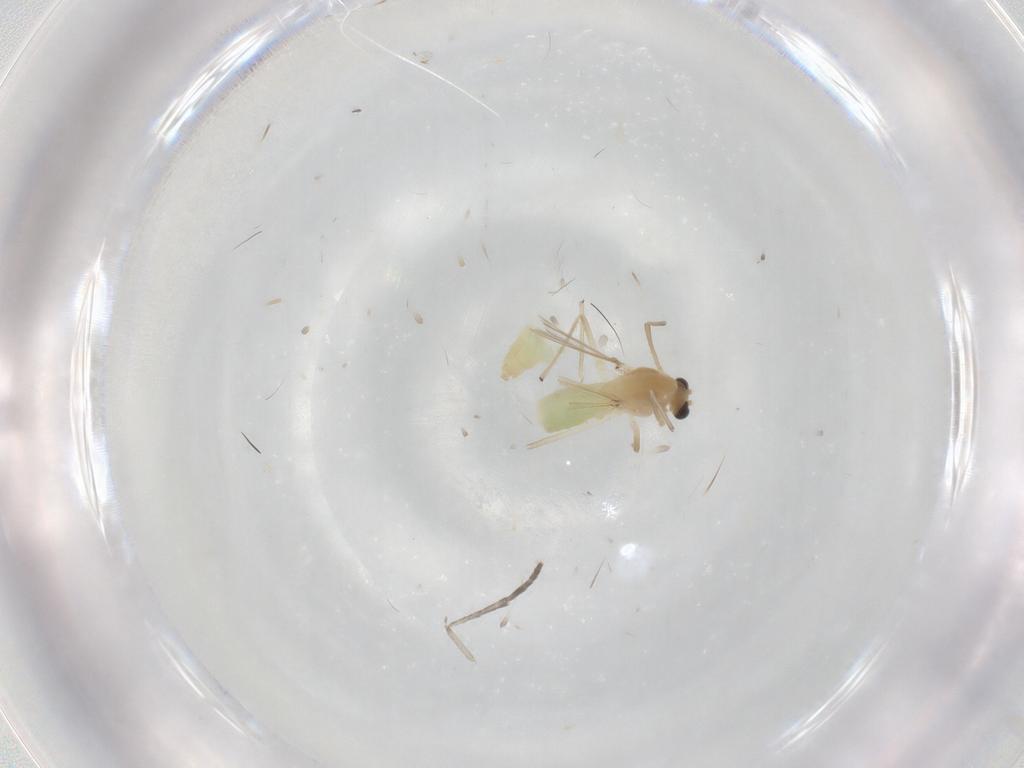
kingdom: Animalia
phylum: Arthropoda
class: Insecta
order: Diptera
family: Chironomidae
